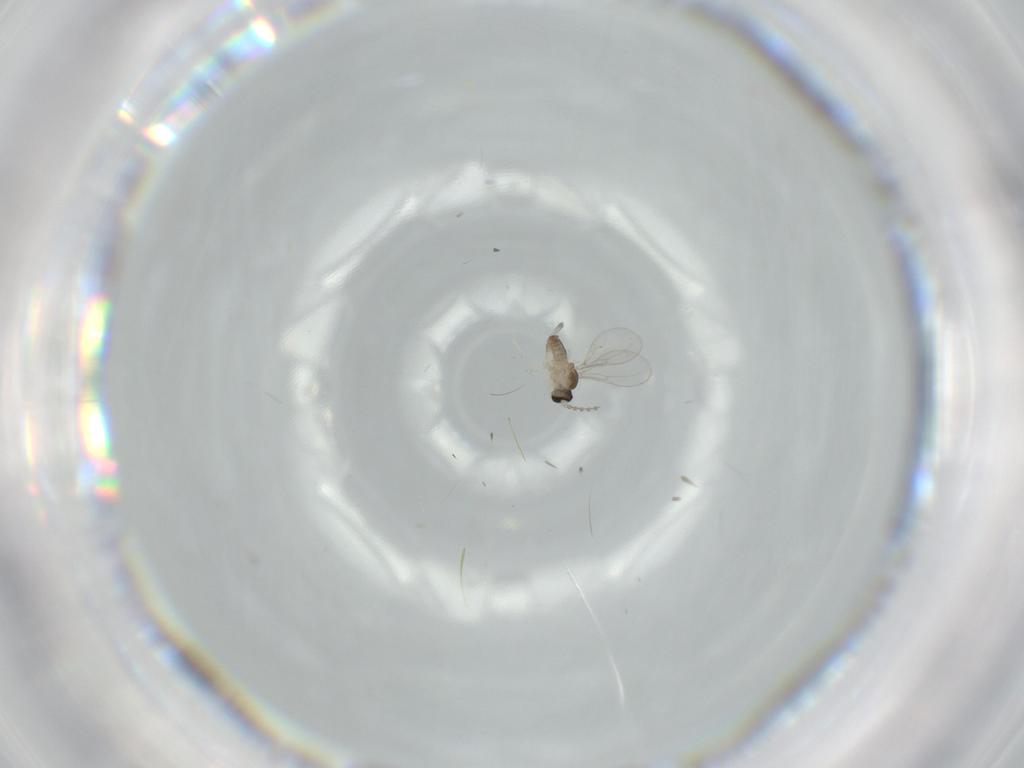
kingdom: Animalia
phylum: Arthropoda
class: Insecta
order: Diptera
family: Cecidomyiidae
